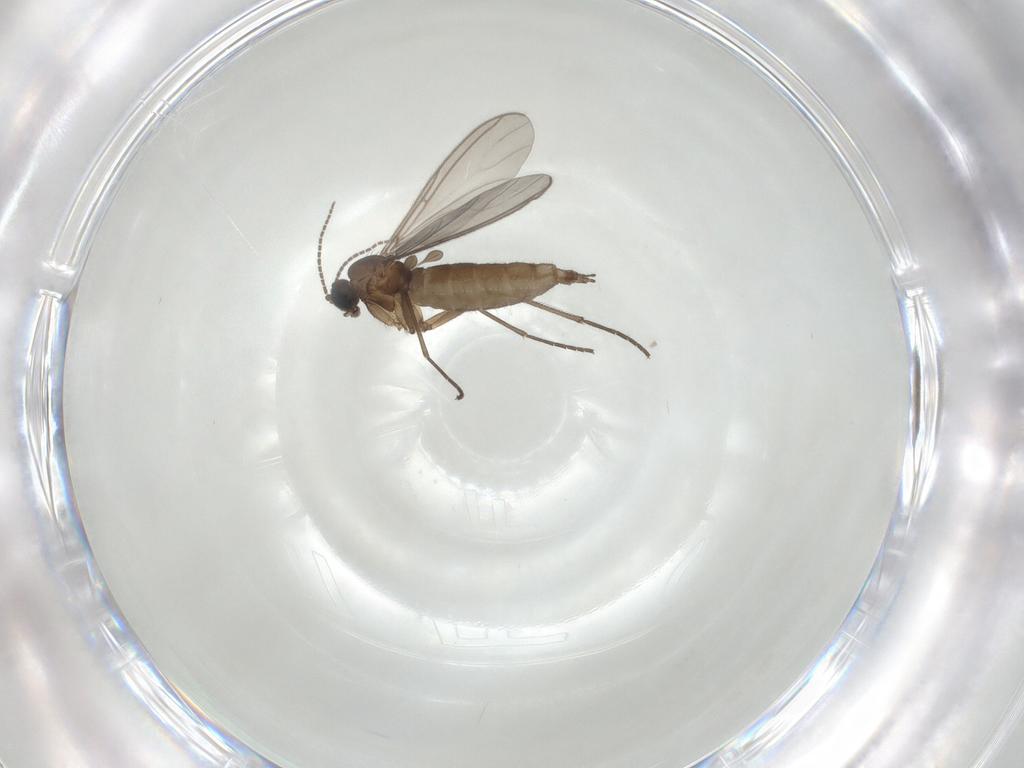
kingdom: Animalia
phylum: Arthropoda
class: Insecta
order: Diptera
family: Sciaridae
